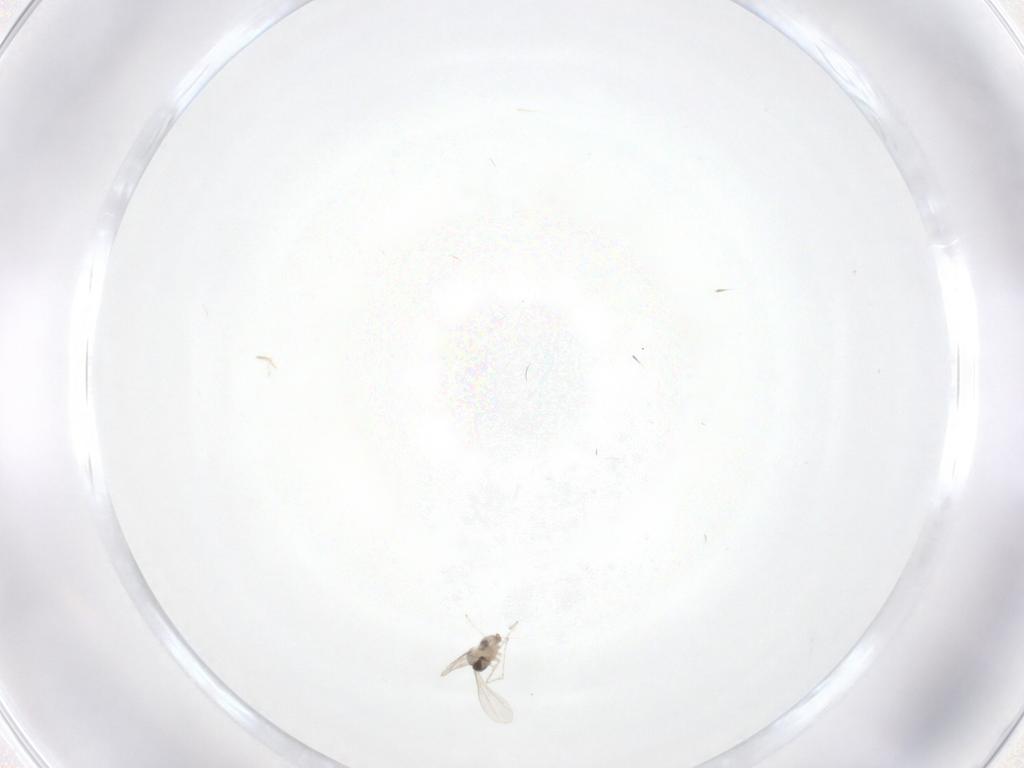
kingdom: Animalia
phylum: Arthropoda
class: Insecta
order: Diptera
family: Cecidomyiidae
